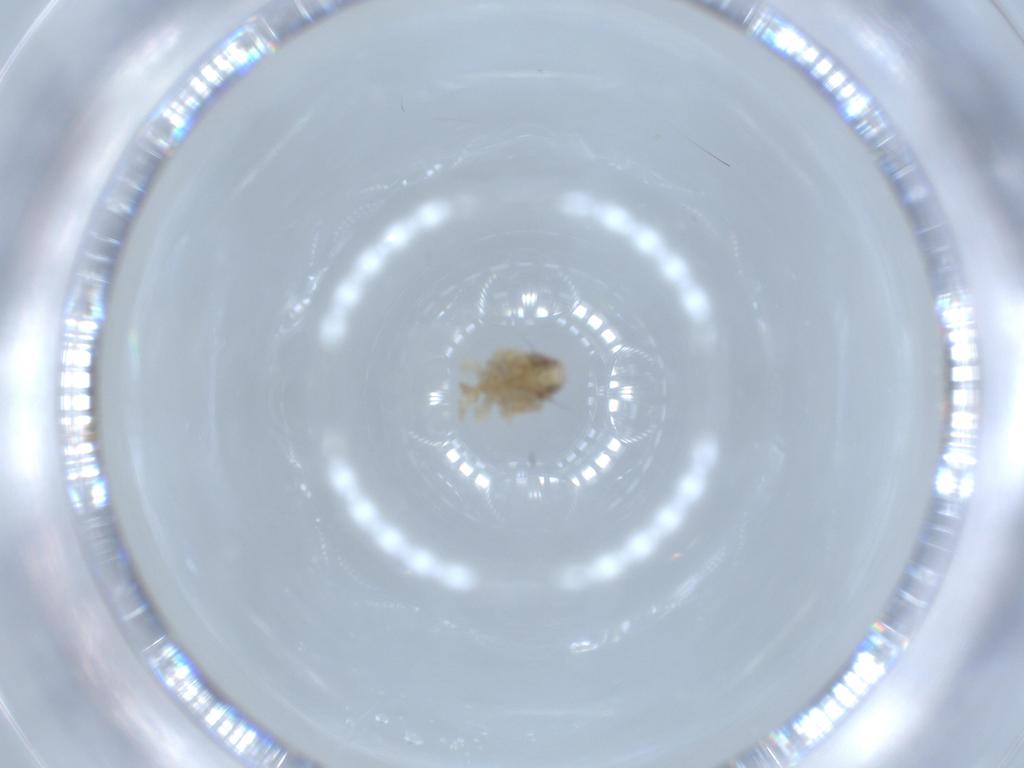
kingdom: Animalia
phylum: Arthropoda
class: Insecta
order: Hemiptera
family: Acanaloniidae
